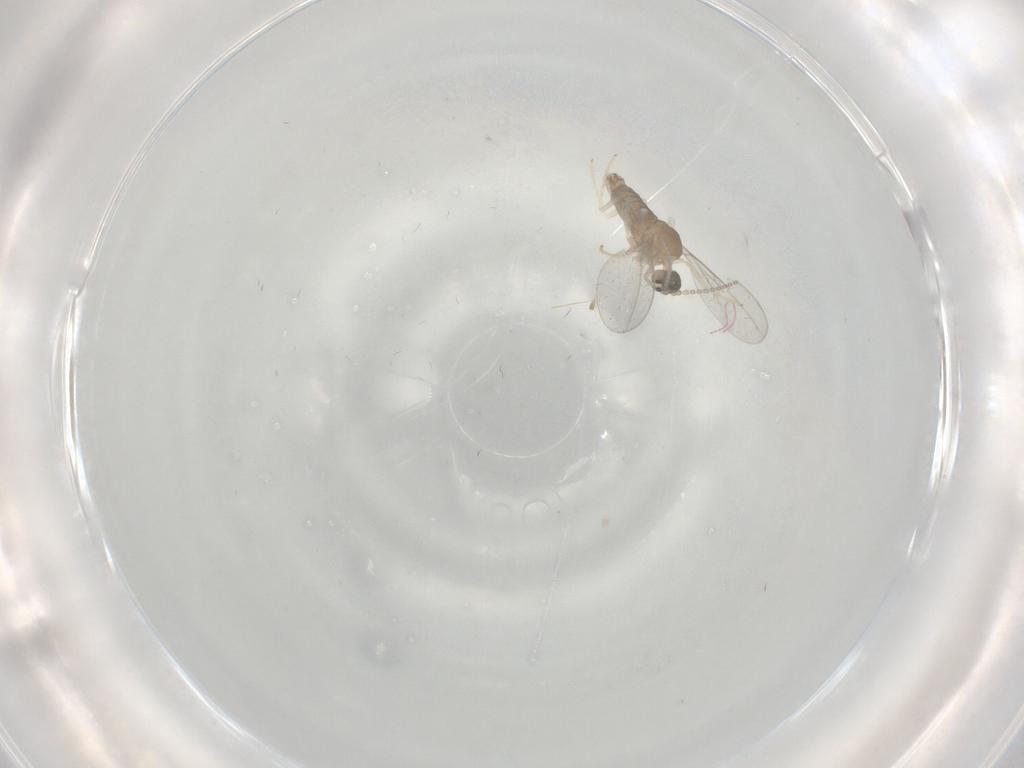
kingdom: Animalia
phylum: Arthropoda
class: Insecta
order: Diptera
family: Cecidomyiidae
